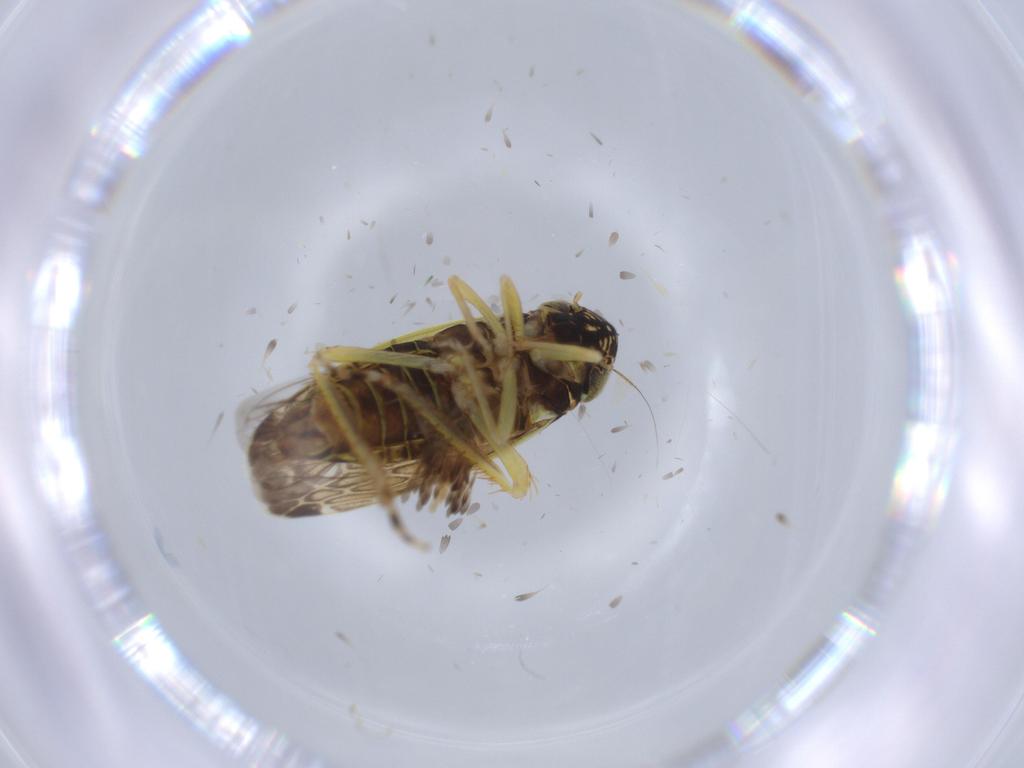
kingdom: Animalia
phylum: Arthropoda
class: Insecta
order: Hemiptera
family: Cicadellidae
